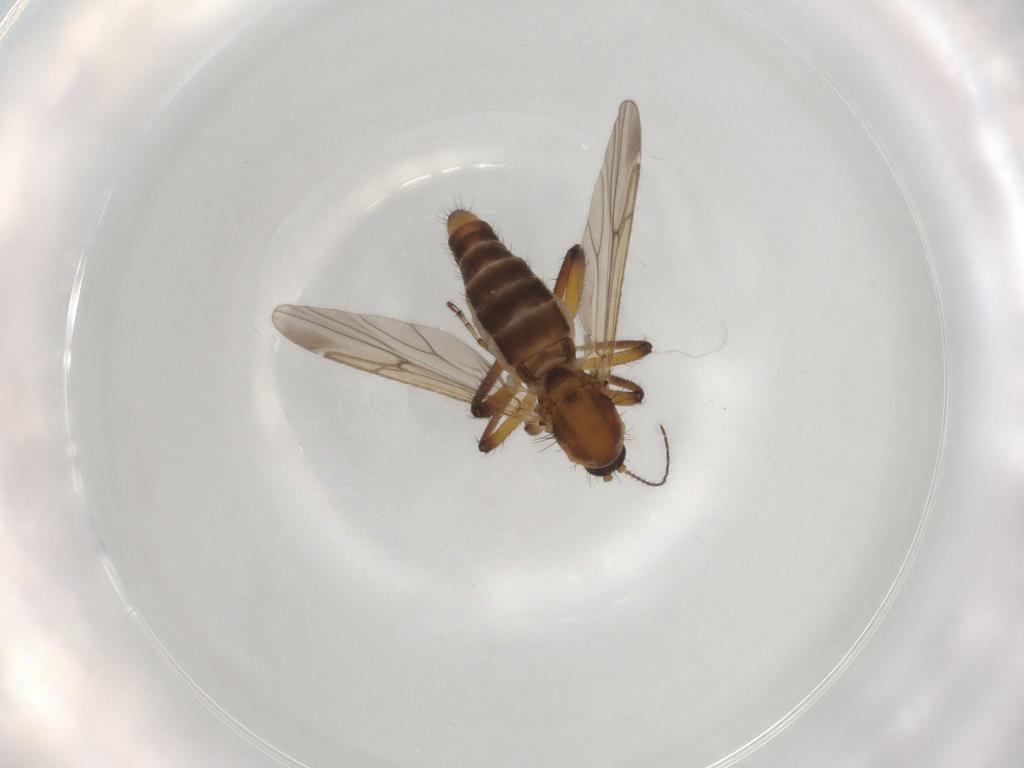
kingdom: Animalia
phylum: Arthropoda
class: Insecta
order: Diptera
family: Ceratopogonidae
